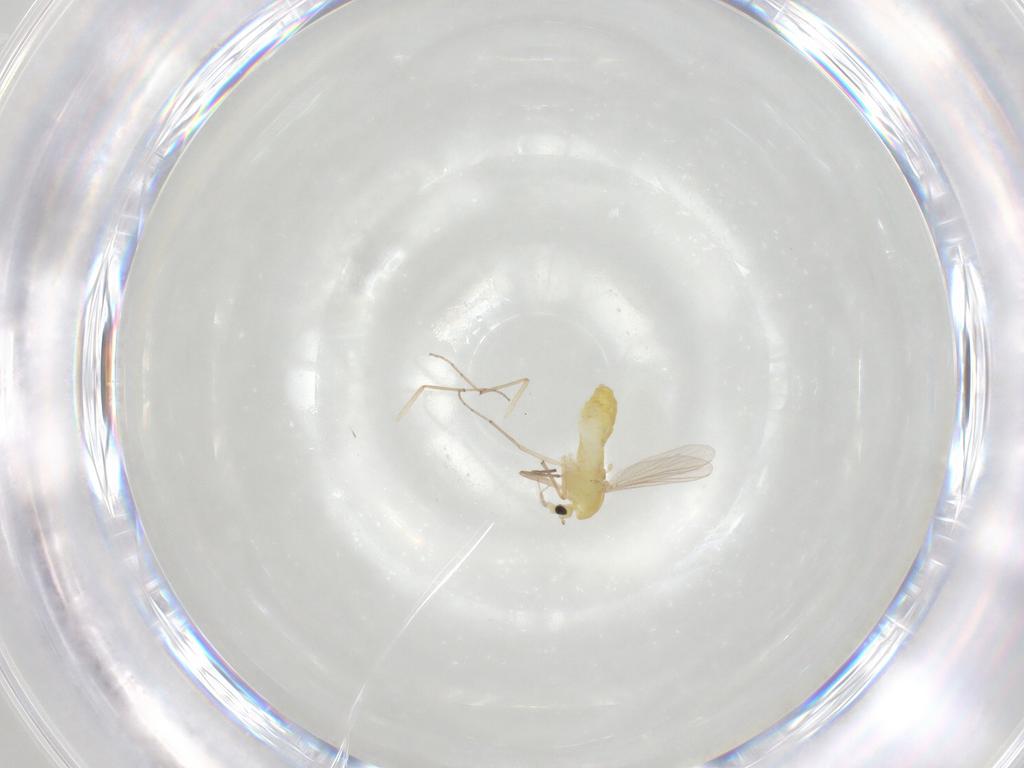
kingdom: Animalia
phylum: Arthropoda
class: Insecta
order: Diptera
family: Chironomidae
